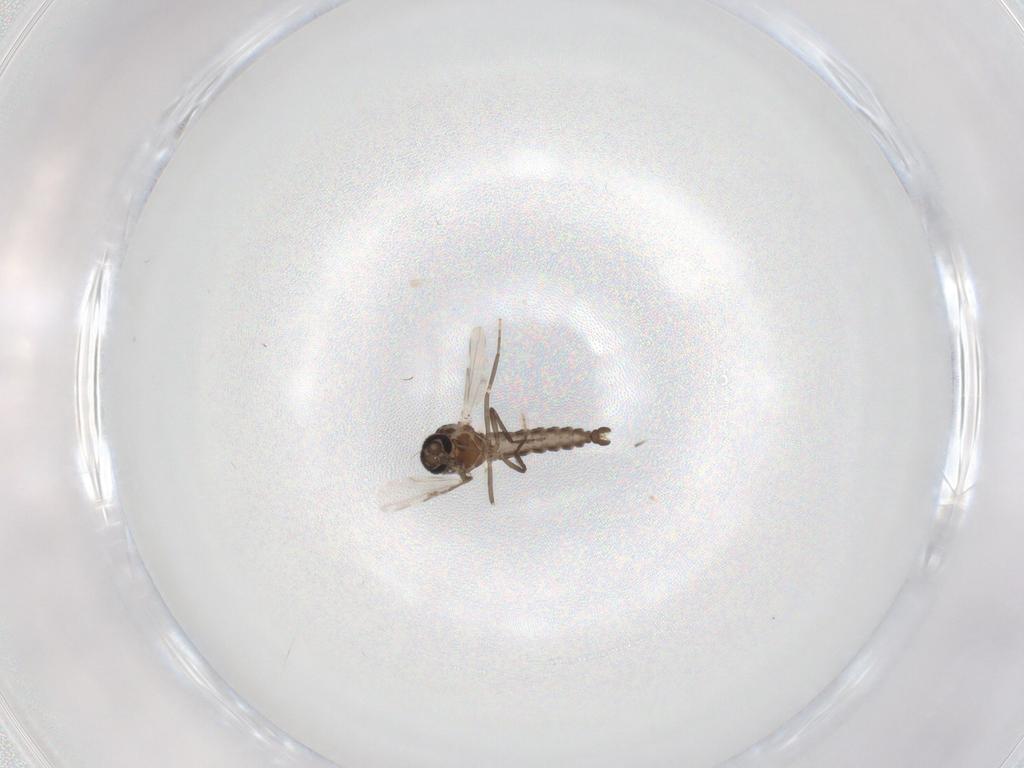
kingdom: Animalia
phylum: Arthropoda
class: Insecta
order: Diptera
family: Ceratopogonidae
